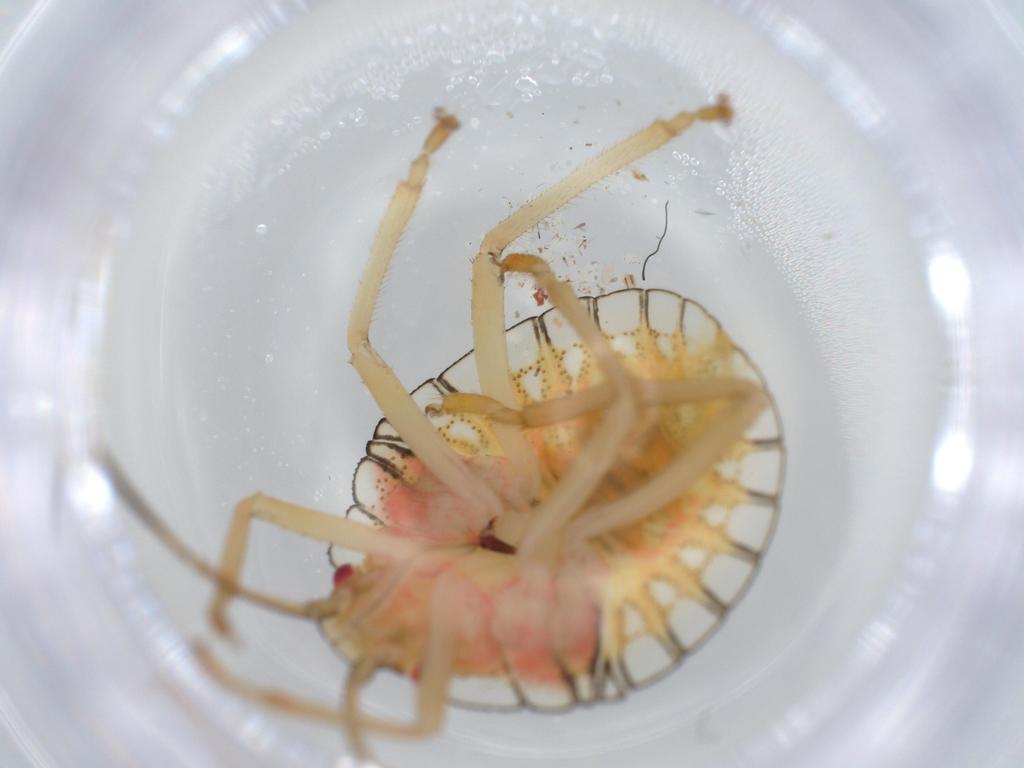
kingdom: Animalia
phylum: Arthropoda
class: Insecta
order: Hemiptera
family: Pentatomidae
